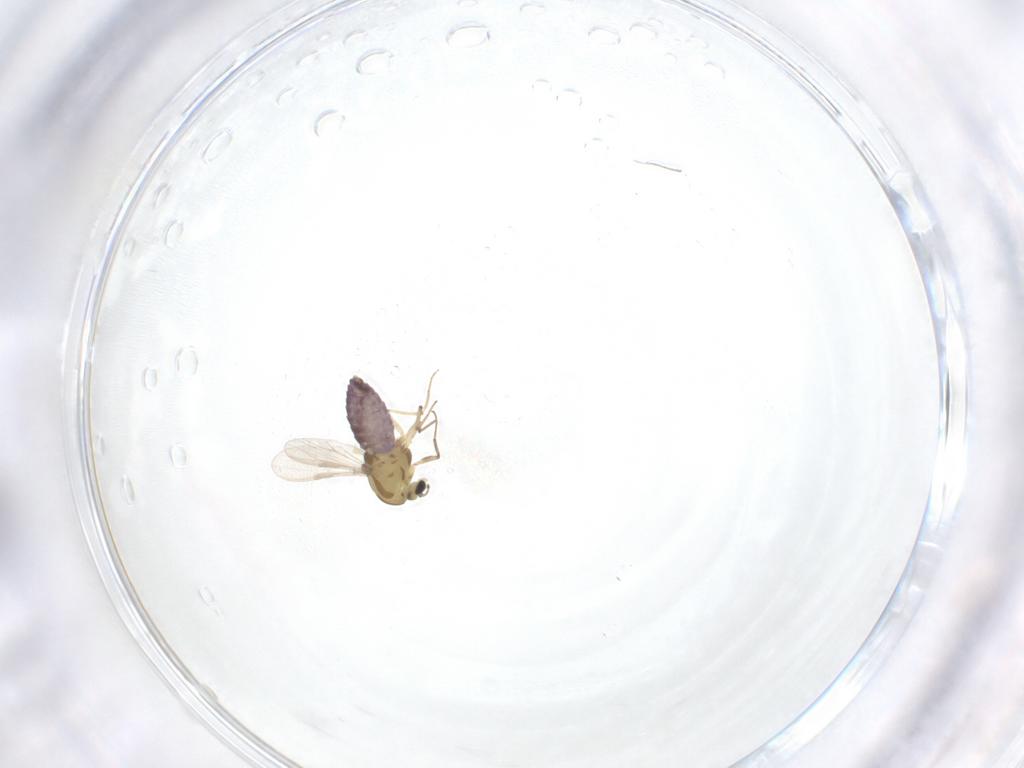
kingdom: Animalia
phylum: Arthropoda
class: Insecta
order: Diptera
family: Chironomidae
